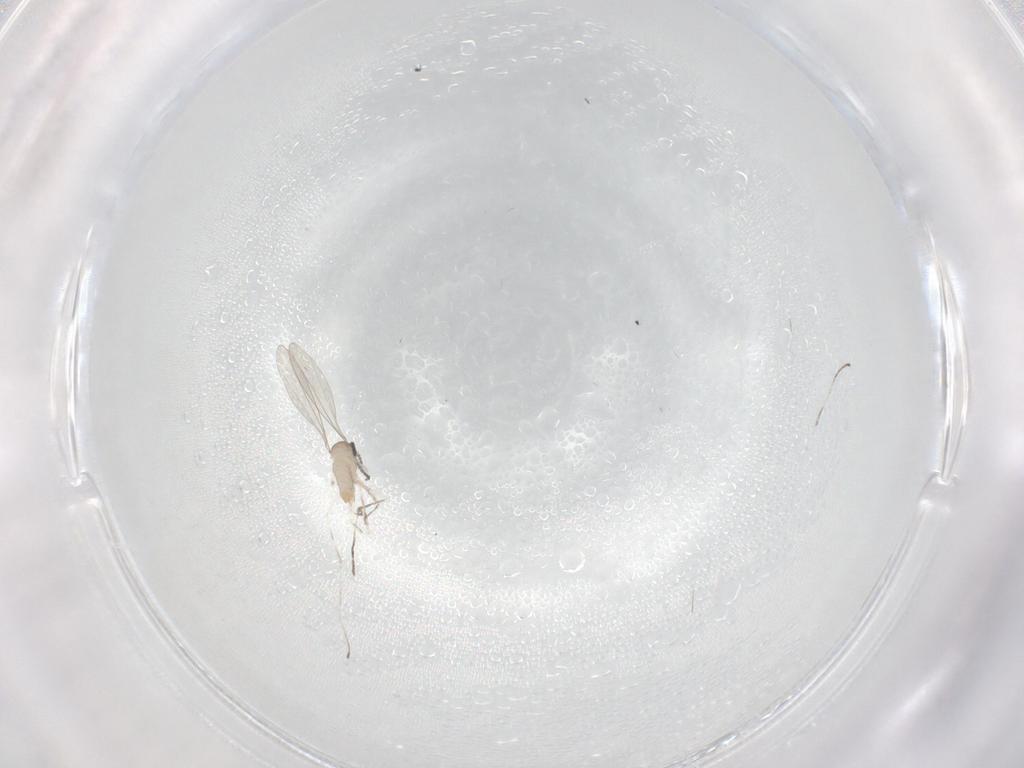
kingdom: Animalia
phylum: Arthropoda
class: Insecta
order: Diptera
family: Cecidomyiidae
